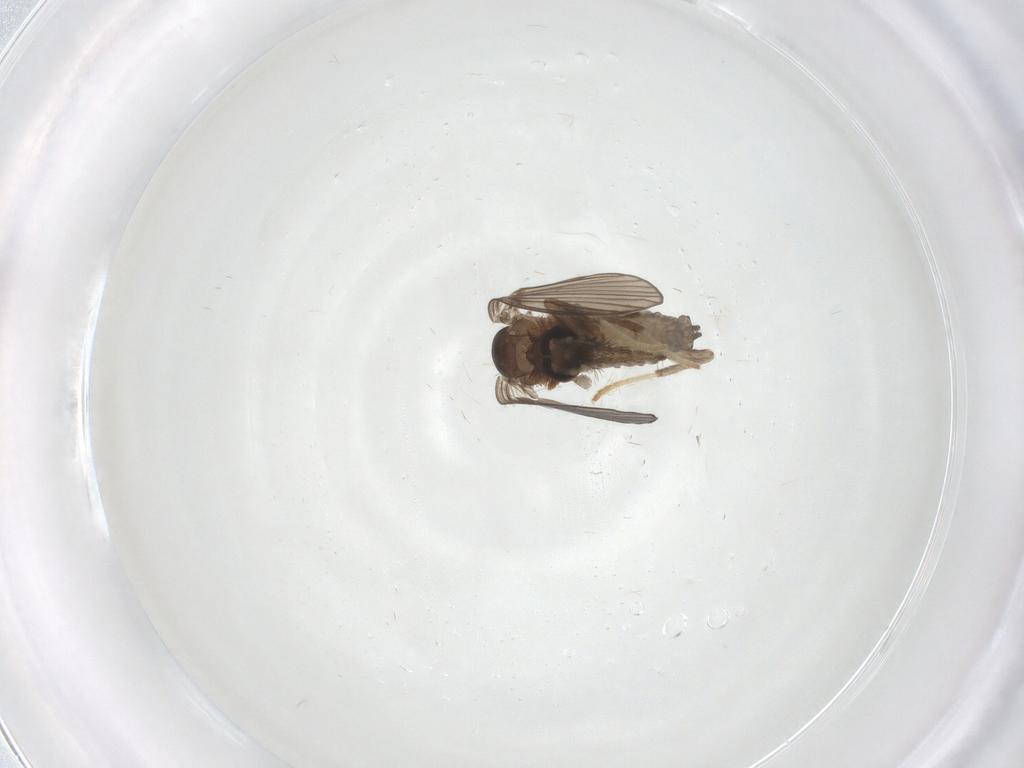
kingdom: Animalia
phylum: Arthropoda
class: Insecta
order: Diptera
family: Psychodidae
